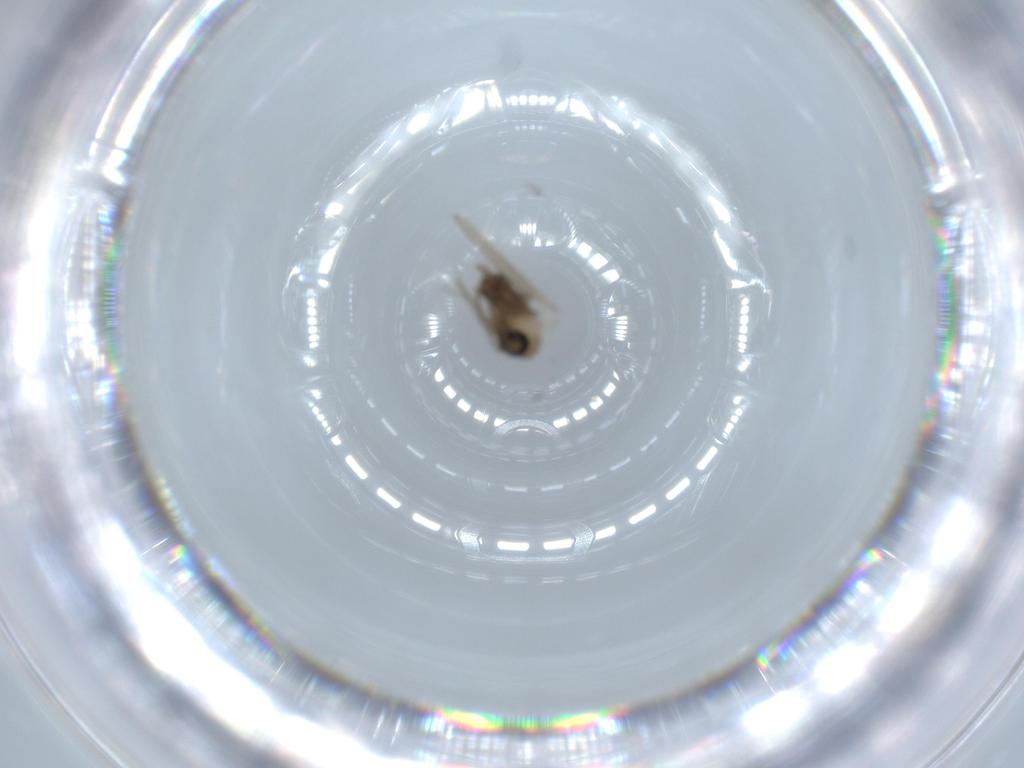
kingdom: Animalia
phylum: Arthropoda
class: Insecta
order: Diptera
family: Psychodidae
